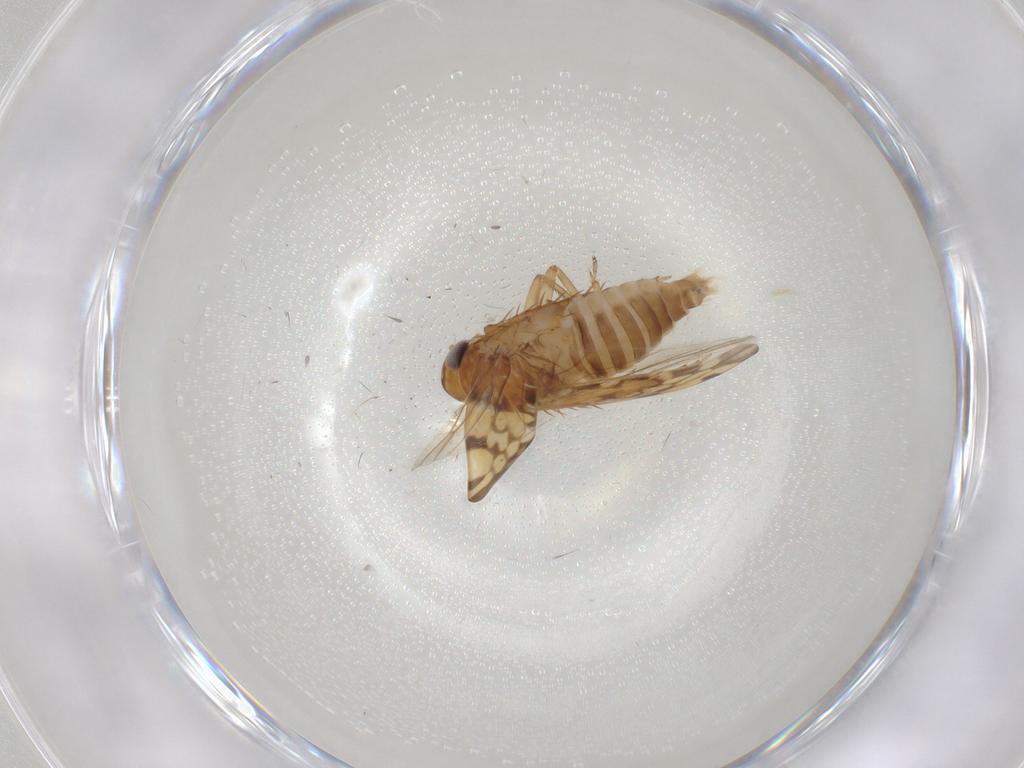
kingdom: Animalia
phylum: Arthropoda
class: Insecta
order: Hemiptera
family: Cicadellidae
